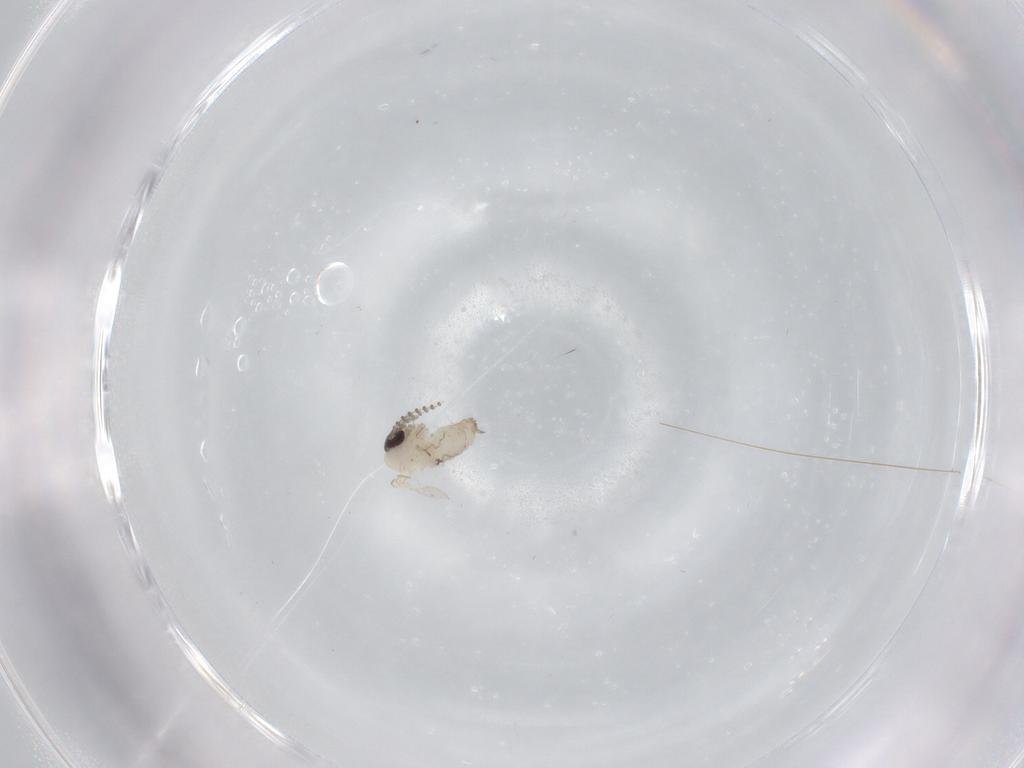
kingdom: Animalia
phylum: Arthropoda
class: Insecta
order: Diptera
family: Psychodidae
